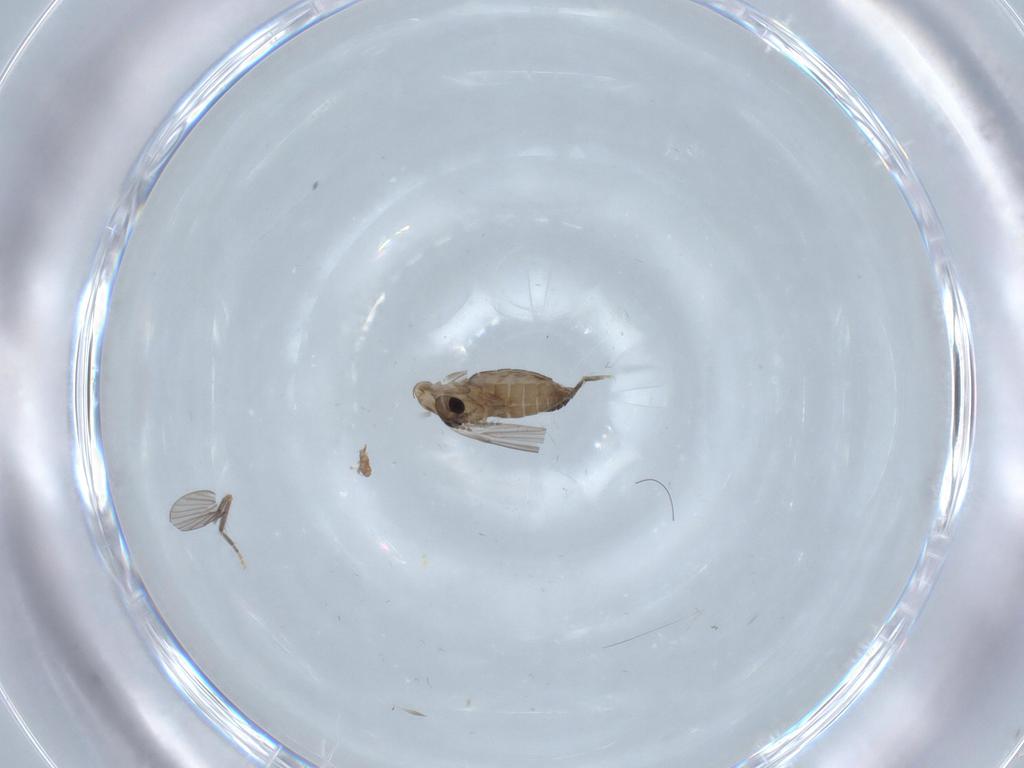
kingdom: Animalia
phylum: Arthropoda
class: Insecta
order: Diptera
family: Psychodidae
